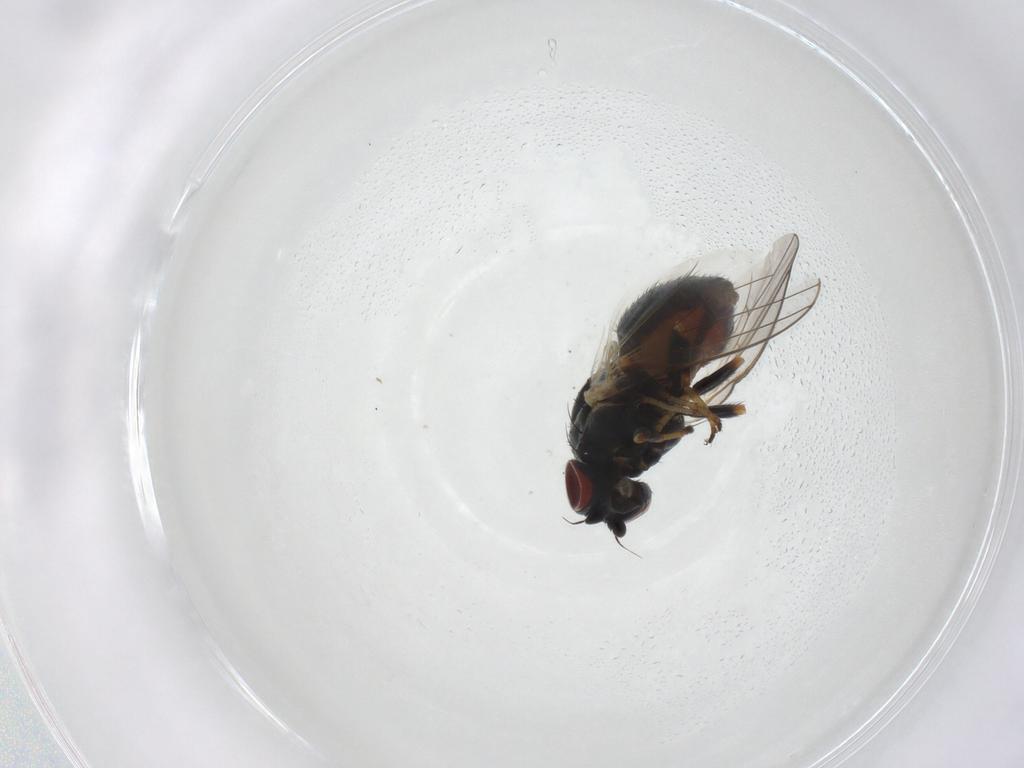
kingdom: Animalia
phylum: Arthropoda
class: Insecta
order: Diptera
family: Chamaemyiidae
